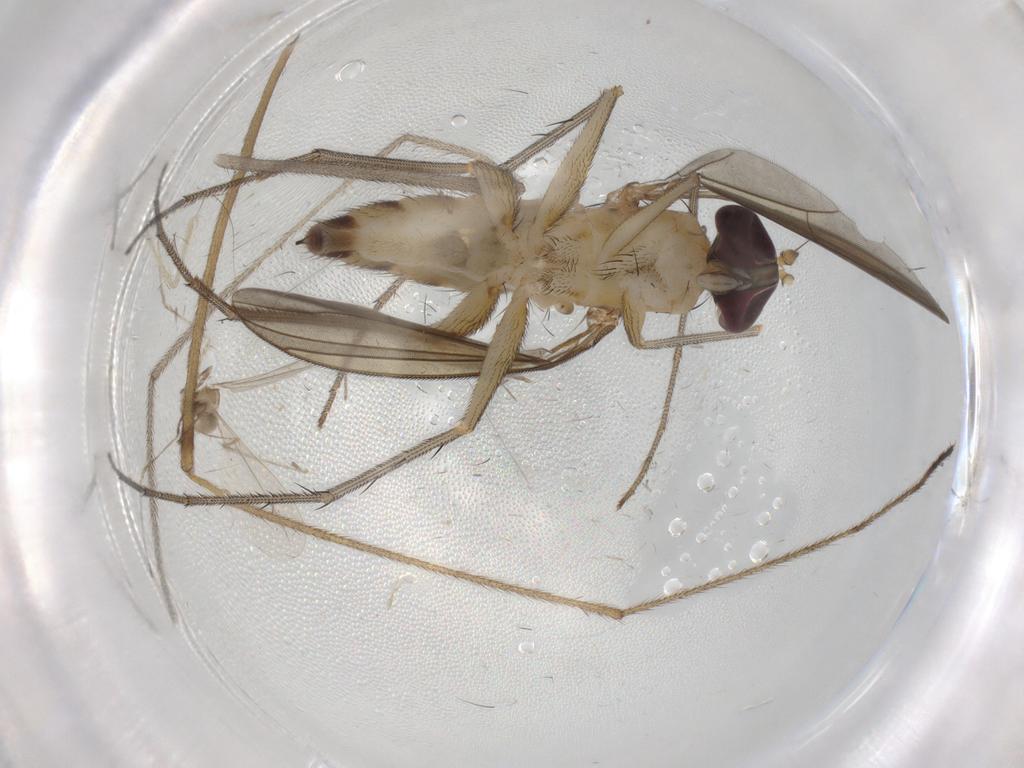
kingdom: Animalia
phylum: Arthropoda
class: Insecta
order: Diptera
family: Limoniidae
